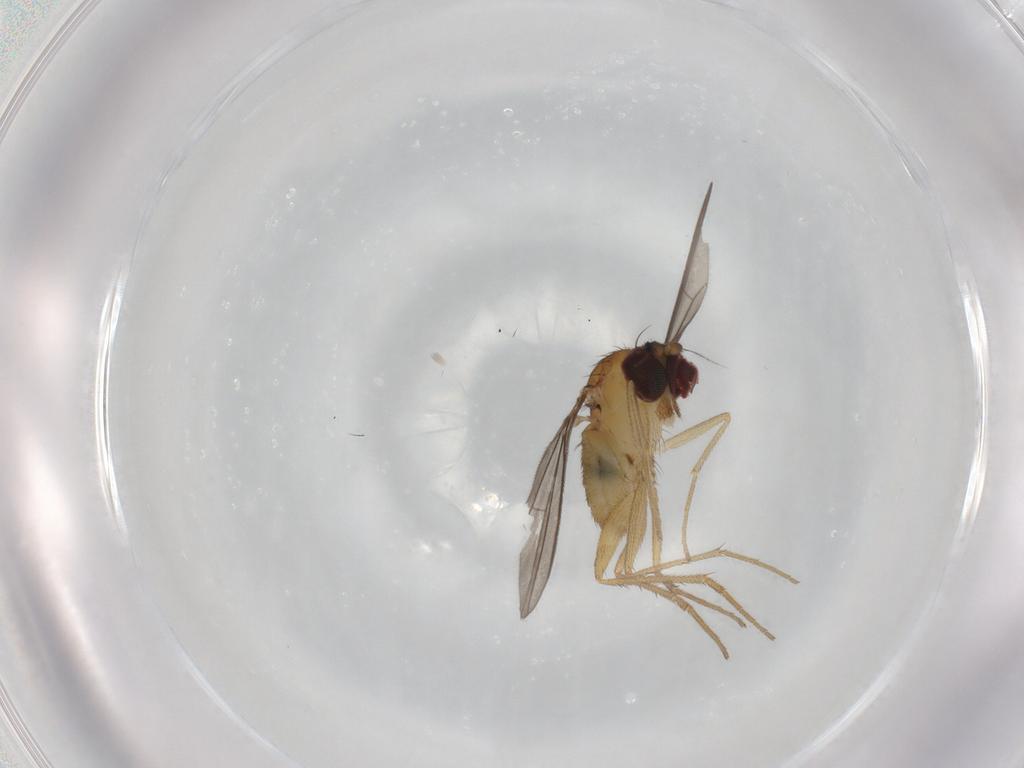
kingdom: Animalia
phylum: Arthropoda
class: Insecta
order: Diptera
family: Dolichopodidae
